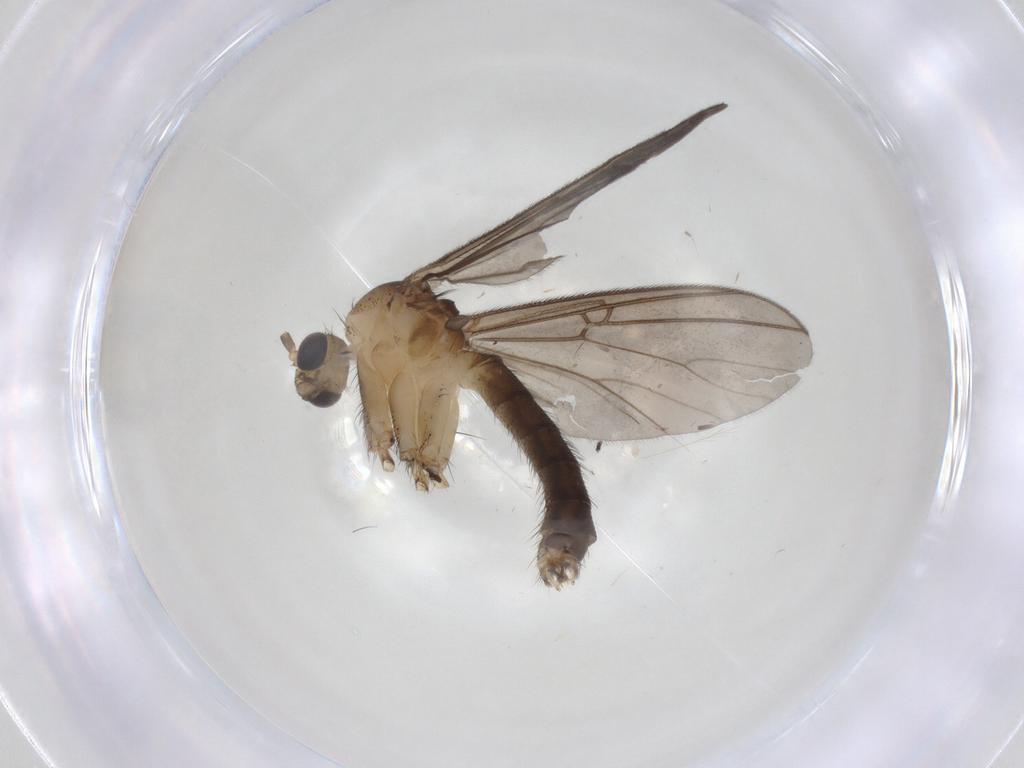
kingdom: Animalia
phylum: Arthropoda
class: Insecta
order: Diptera
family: Mycetophilidae
